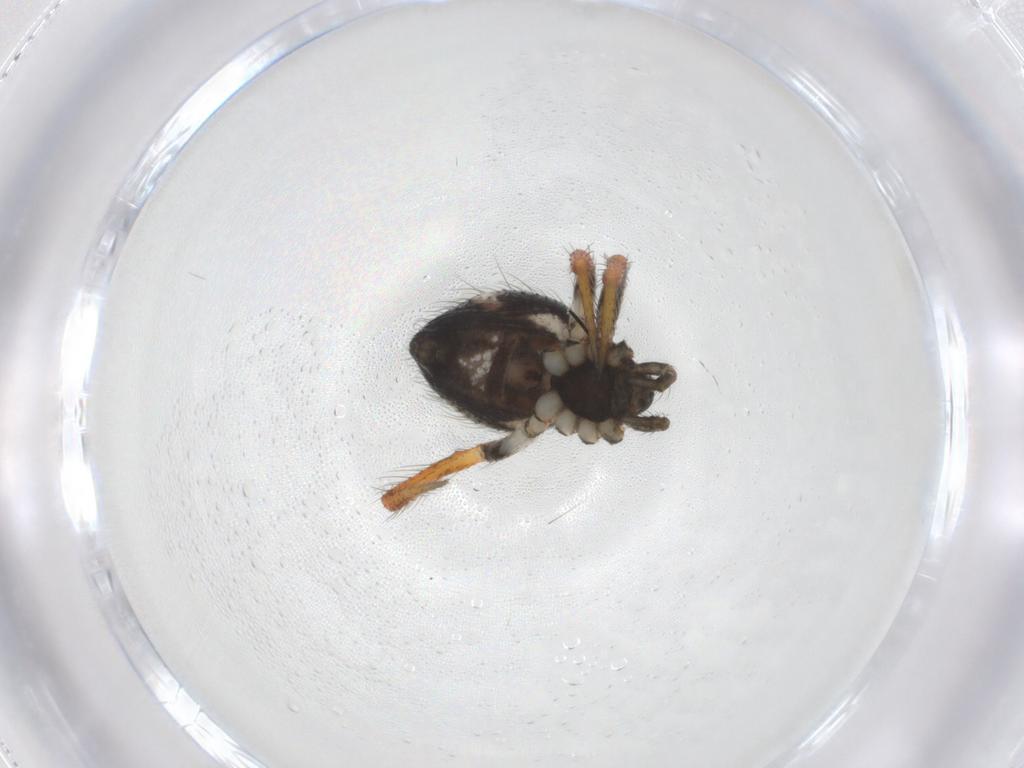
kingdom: Animalia
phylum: Arthropoda
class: Arachnida
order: Araneae
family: Theridiidae
